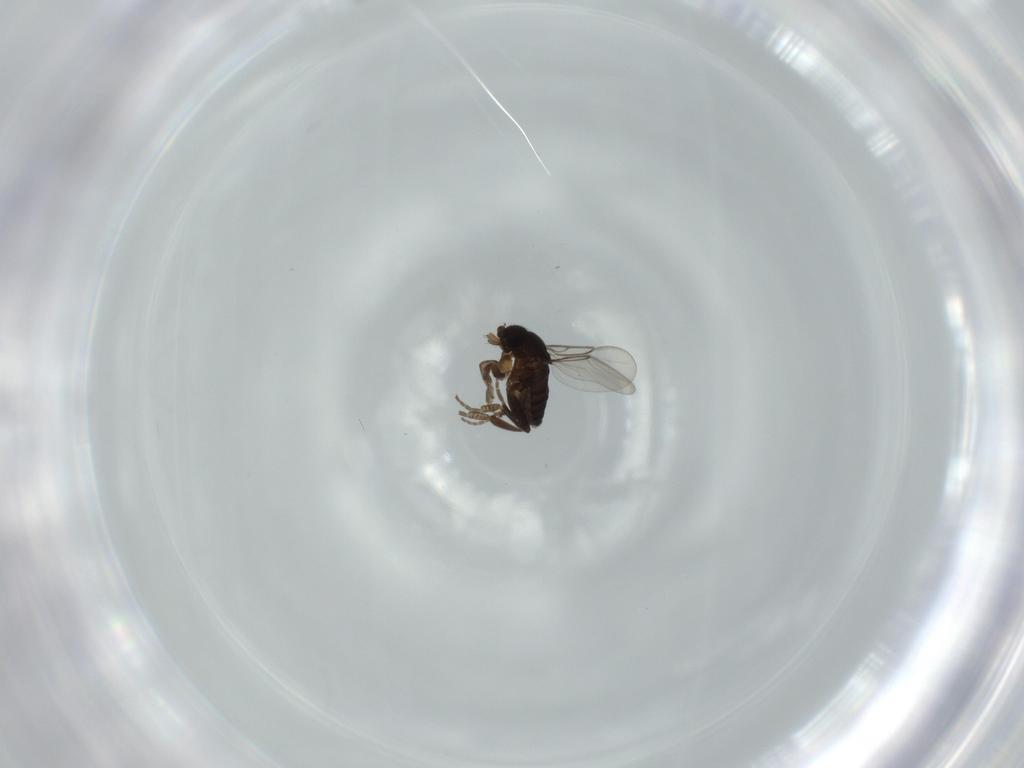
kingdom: Animalia
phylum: Arthropoda
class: Insecta
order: Diptera
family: Phoridae
